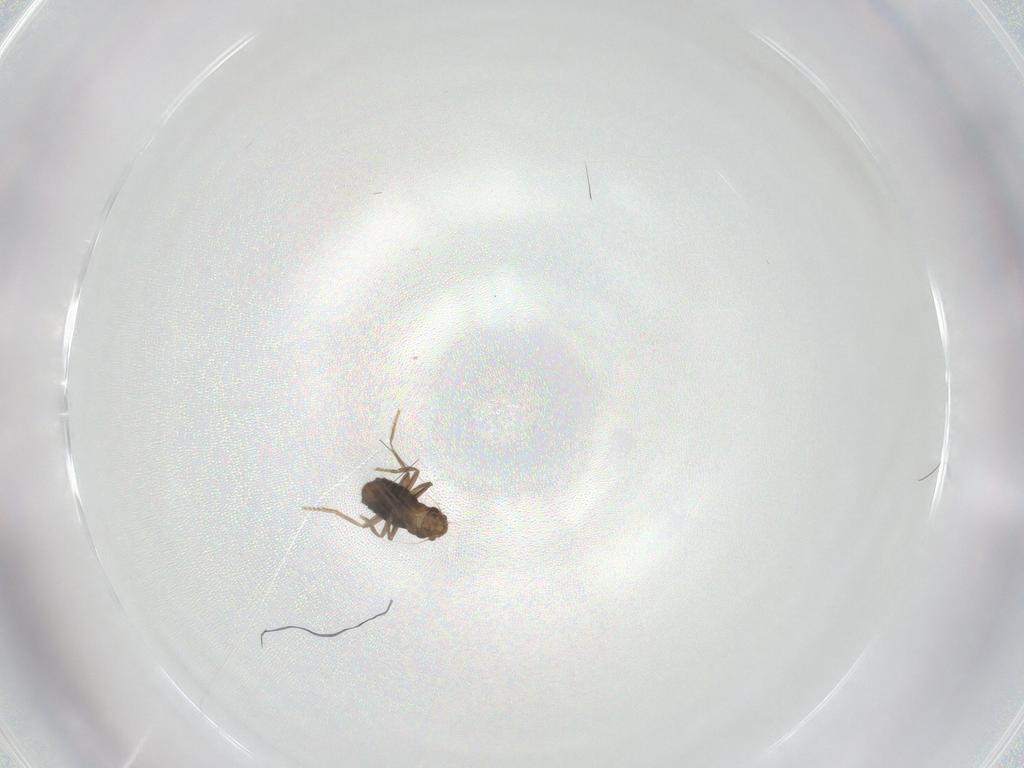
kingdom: Animalia
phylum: Arthropoda
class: Insecta
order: Diptera
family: Phoridae
